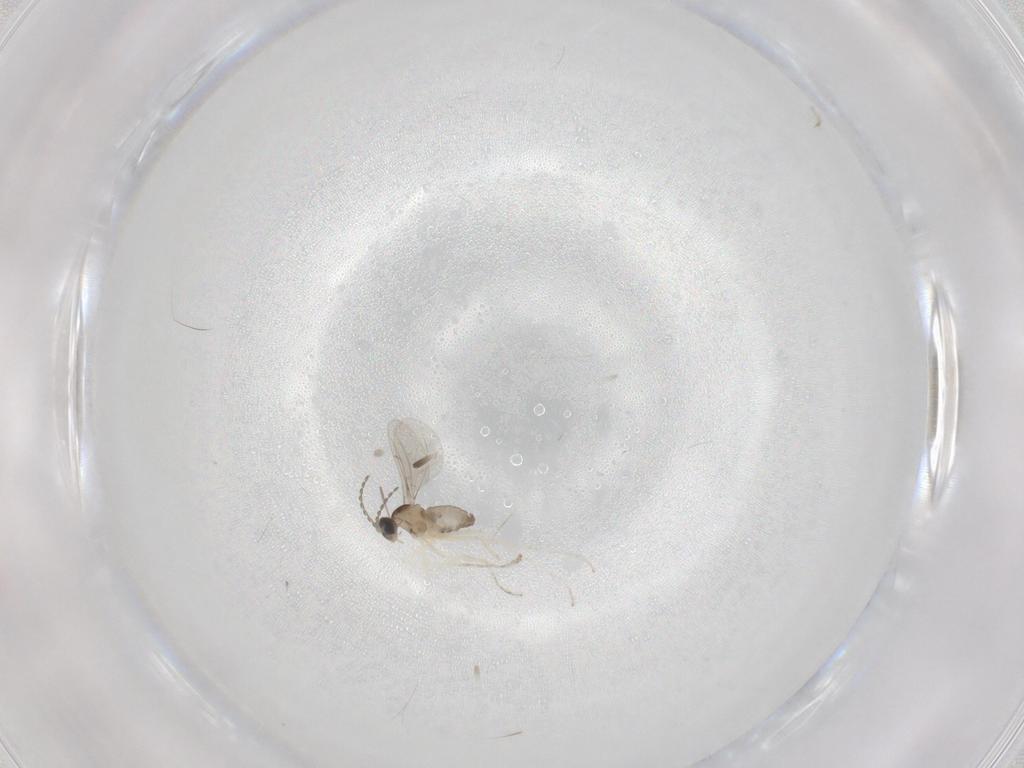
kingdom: Animalia
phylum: Arthropoda
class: Insecta
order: Diptera
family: Cecidomyiidae
